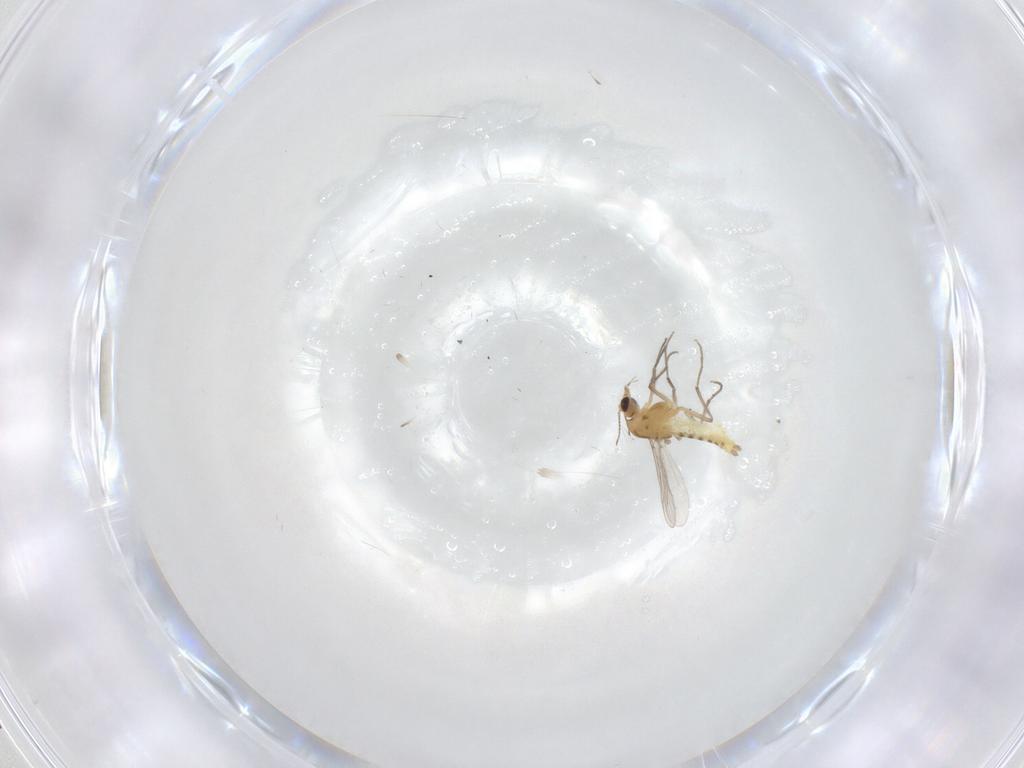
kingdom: Animalia
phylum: Arthropoda
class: Insecta
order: Diptera
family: Chironomidae
